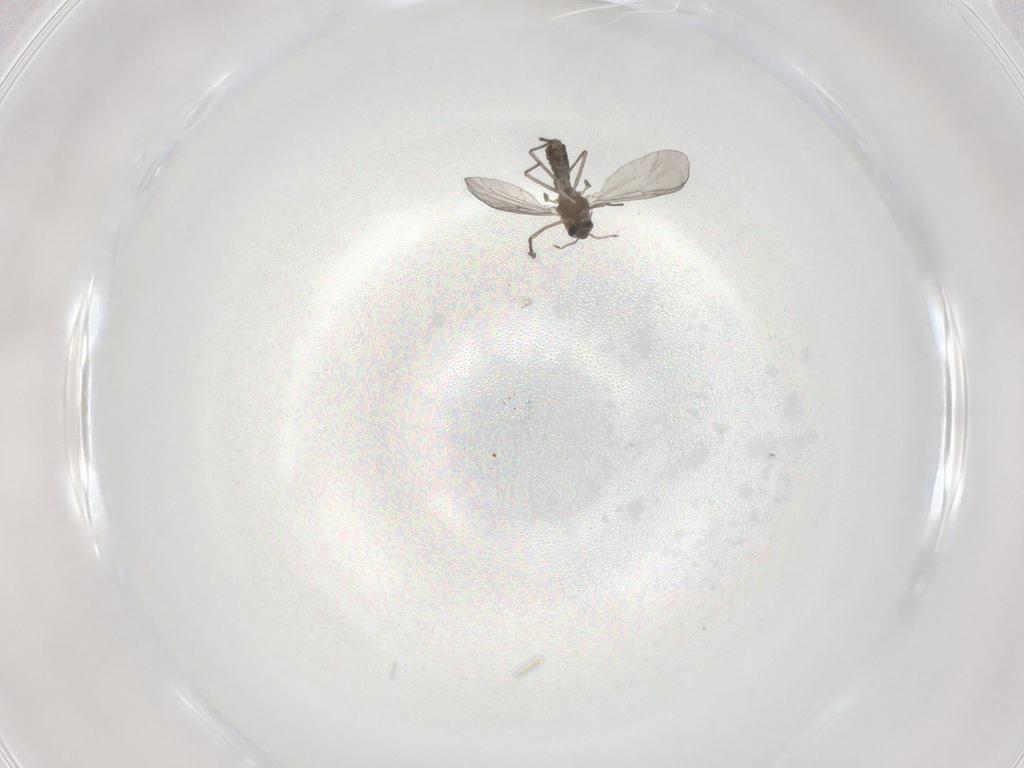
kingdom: Animalia
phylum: Arthropoda
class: Insecta
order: Diptera
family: Chironomidae
